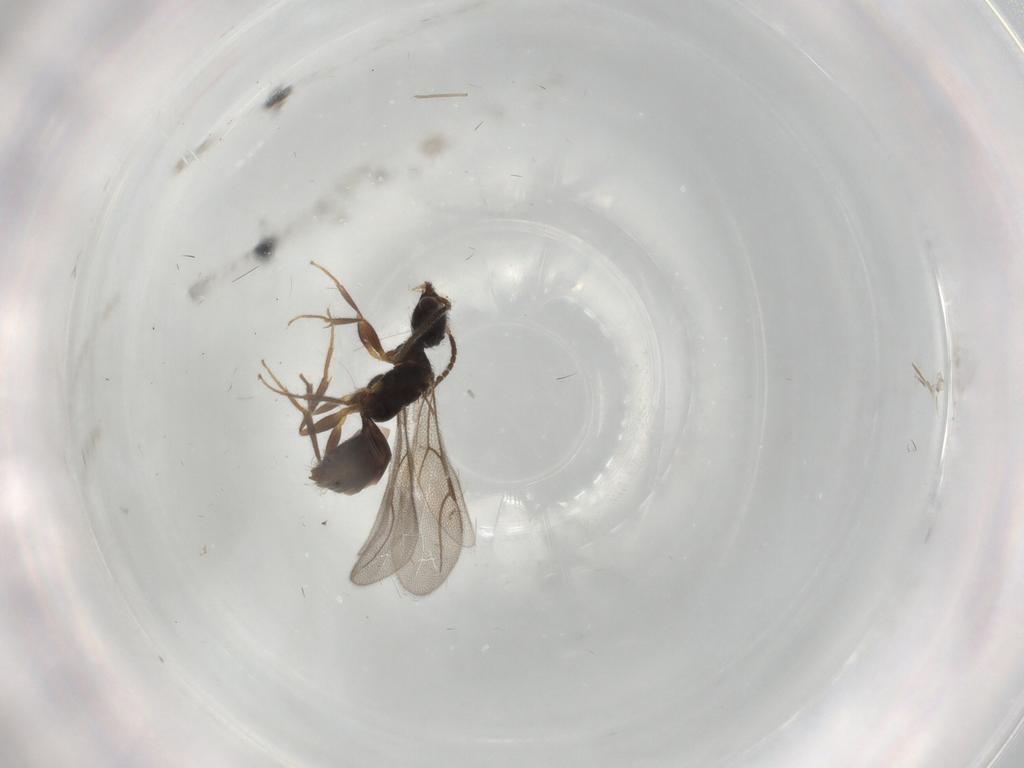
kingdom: Animalia
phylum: Arthropoda
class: Insecta
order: Hymenoptera
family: Bethylidae
